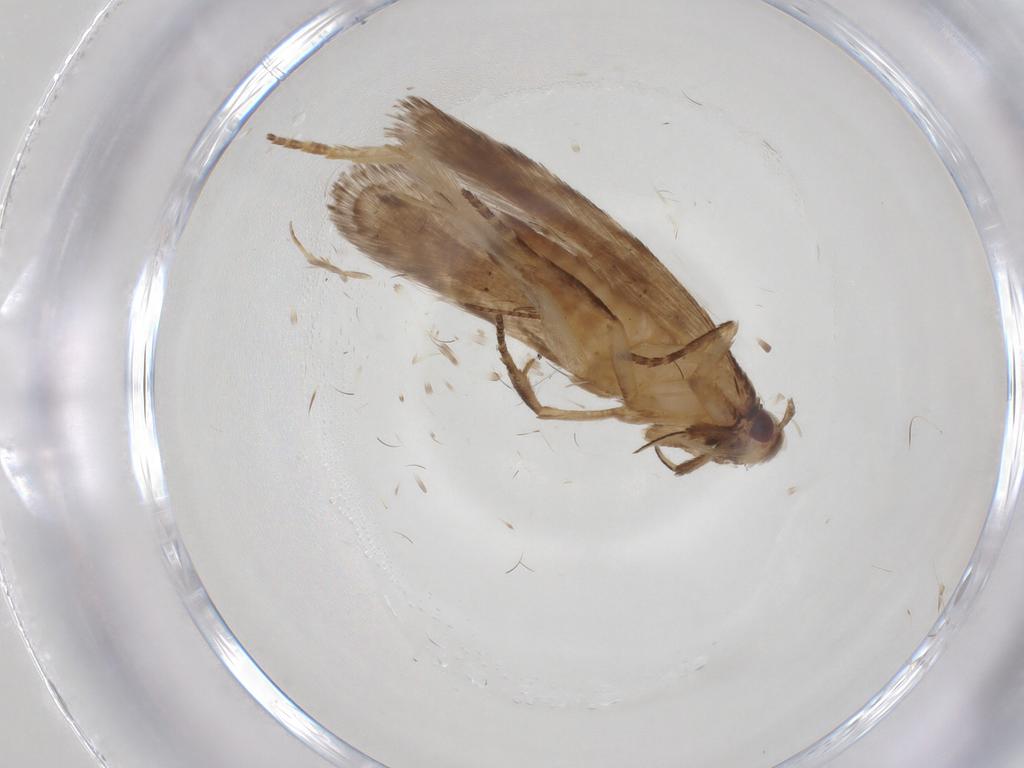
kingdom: Animalia
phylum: Arthropoda
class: Insecta
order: Lepidoptera
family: Gelechiidae
